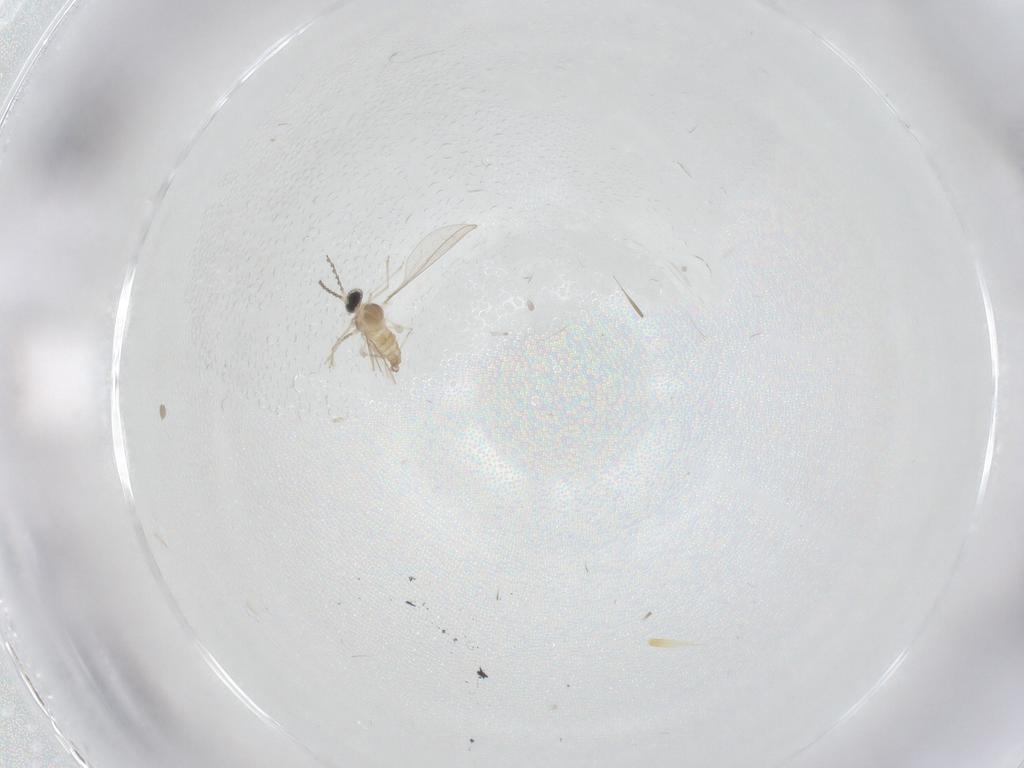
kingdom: Animalia
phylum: Arthropoda
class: Insecta
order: Diptera
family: Cecidomyiidae
